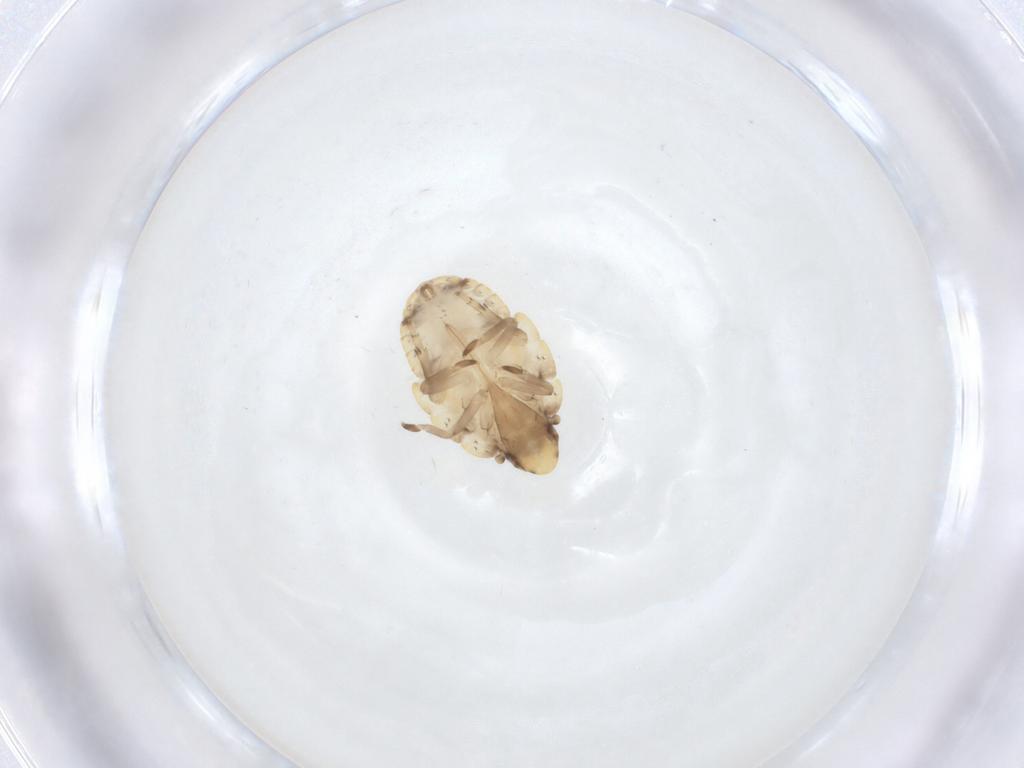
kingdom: Animalia
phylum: Arthropoda
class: Insecta
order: Hemiptera
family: Flatidae
